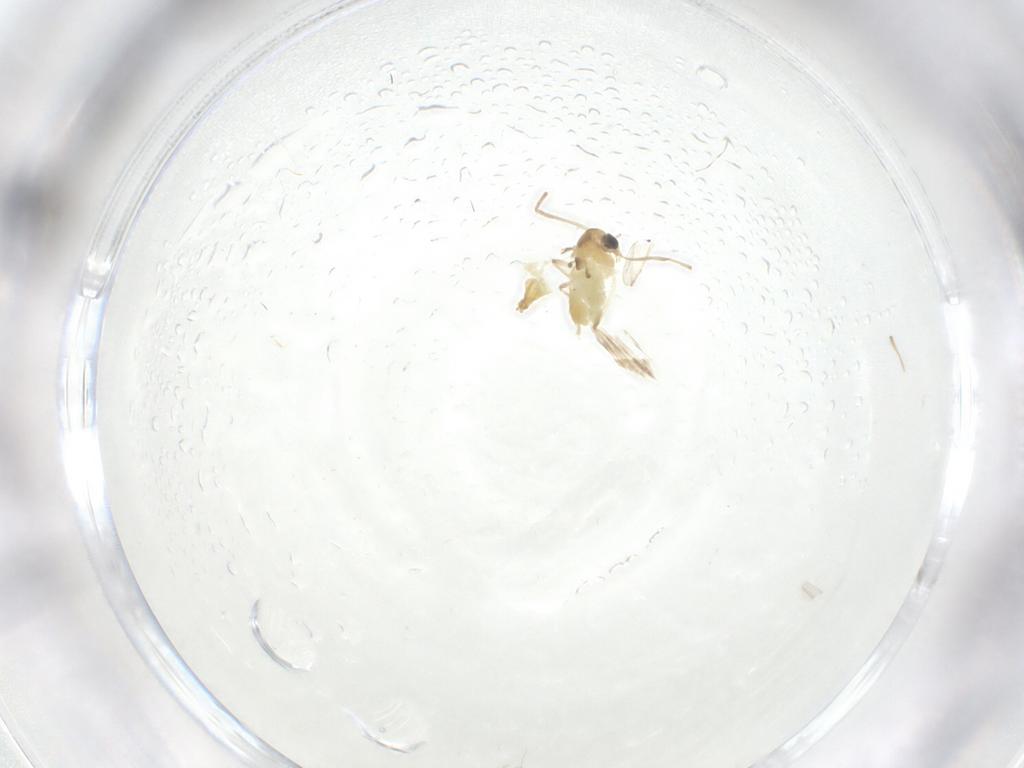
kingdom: Animalia
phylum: Arthropoda
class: Insecta
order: Diptera
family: Chironomidae
